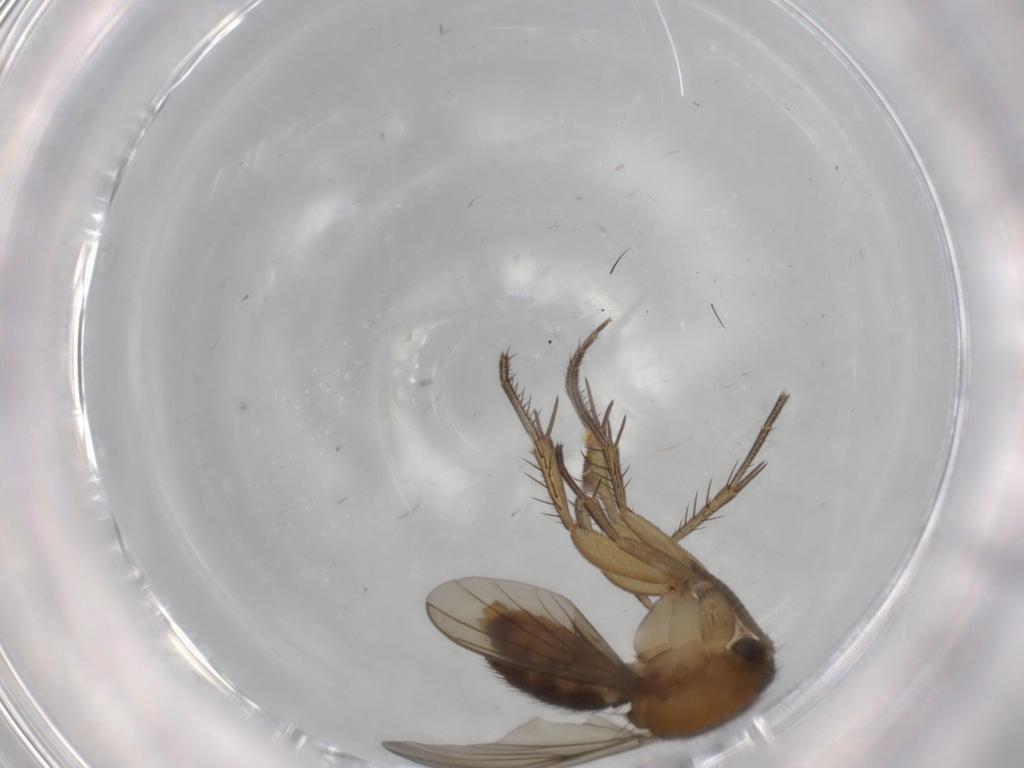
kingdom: Animalia
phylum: Arthropoda
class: Insecta
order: Diptera
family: Mycetophilidae
